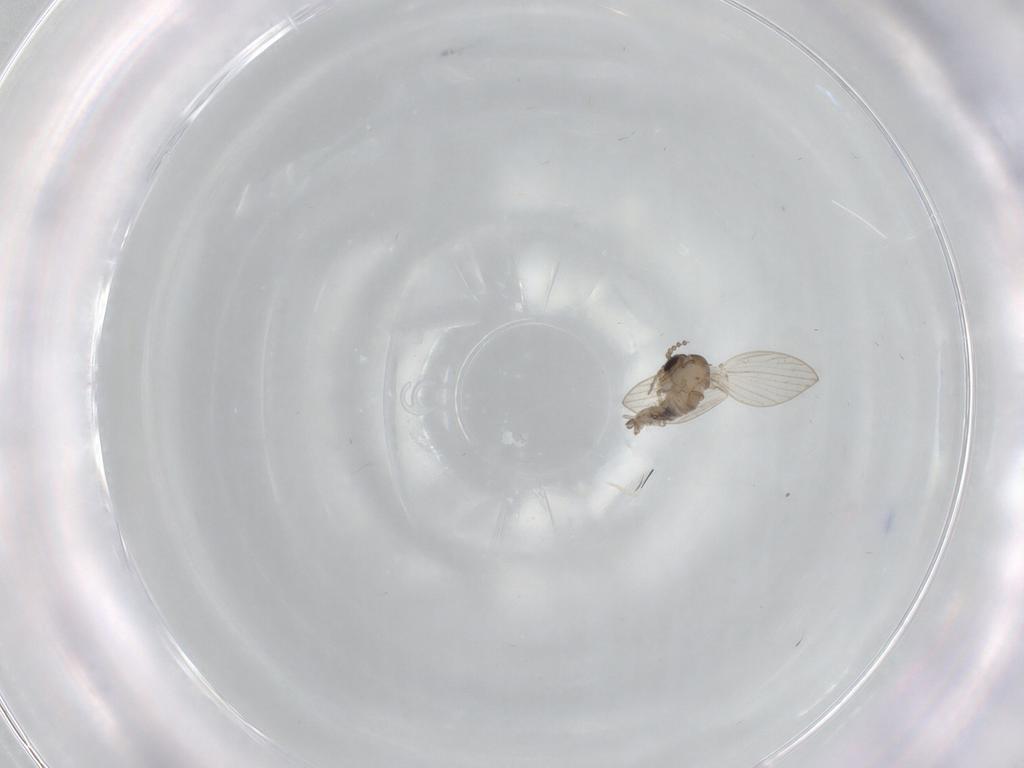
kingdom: Animalia
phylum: Arthropoda
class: Insecta
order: Diptera
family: Psychodidae
